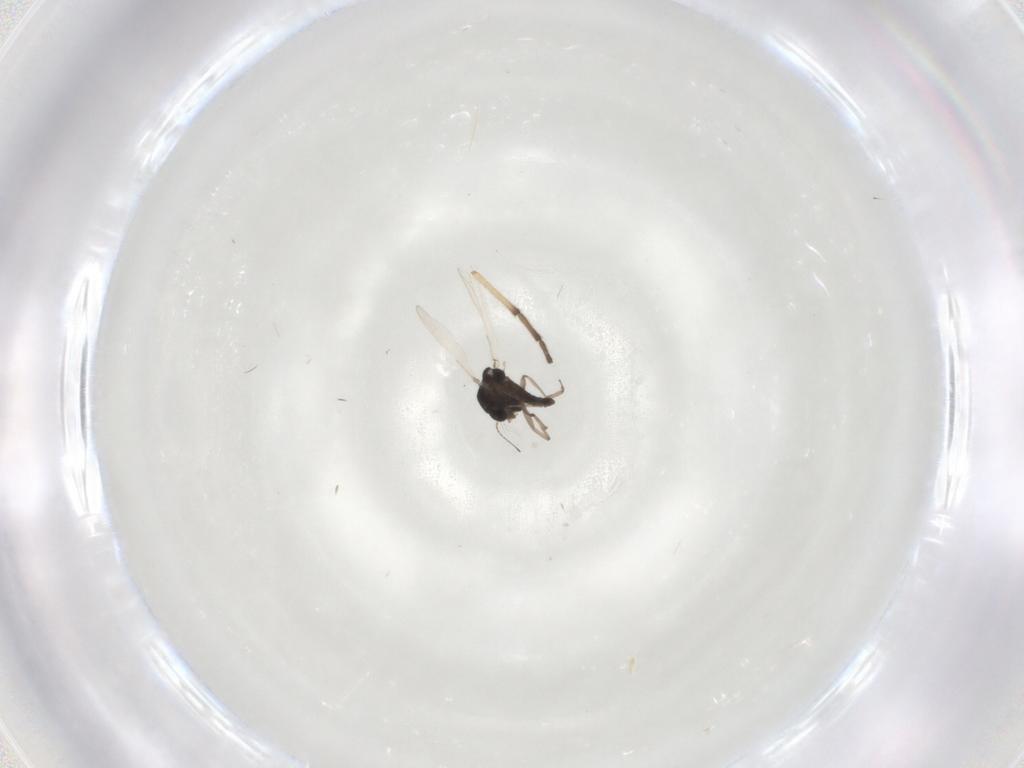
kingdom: Animalia
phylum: Arthropoda
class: Insecta
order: Diptera
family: Chironomidae
